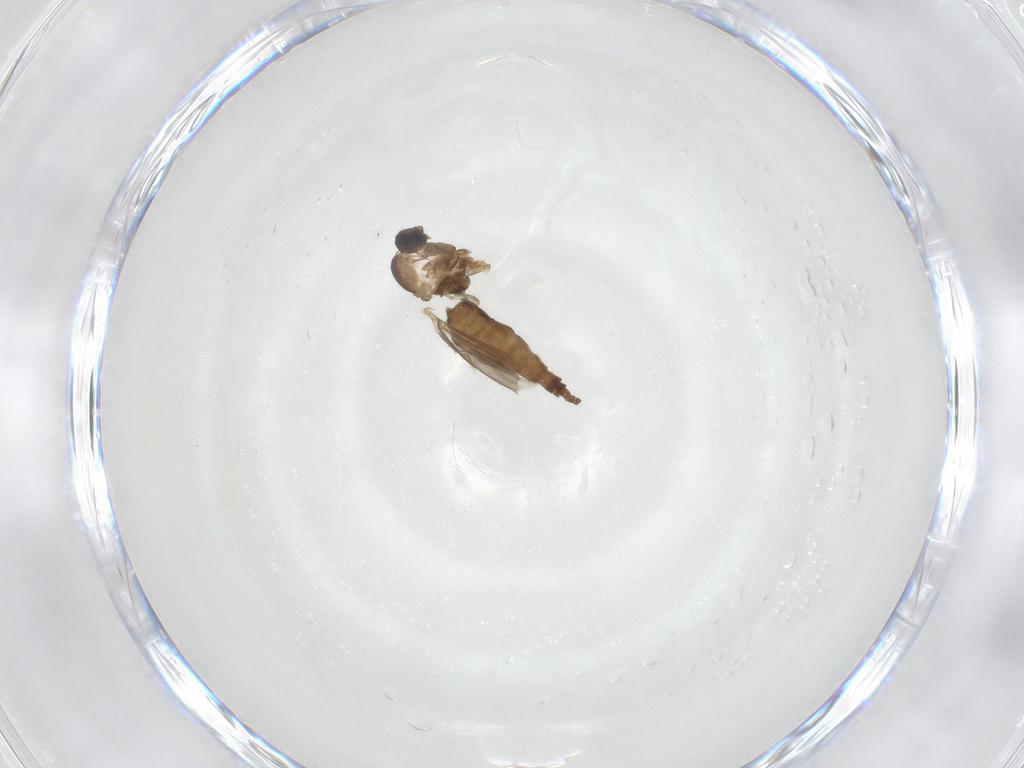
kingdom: Animalia
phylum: Arthropoda
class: Insecta
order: Diptera
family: Cecidomyiidae
